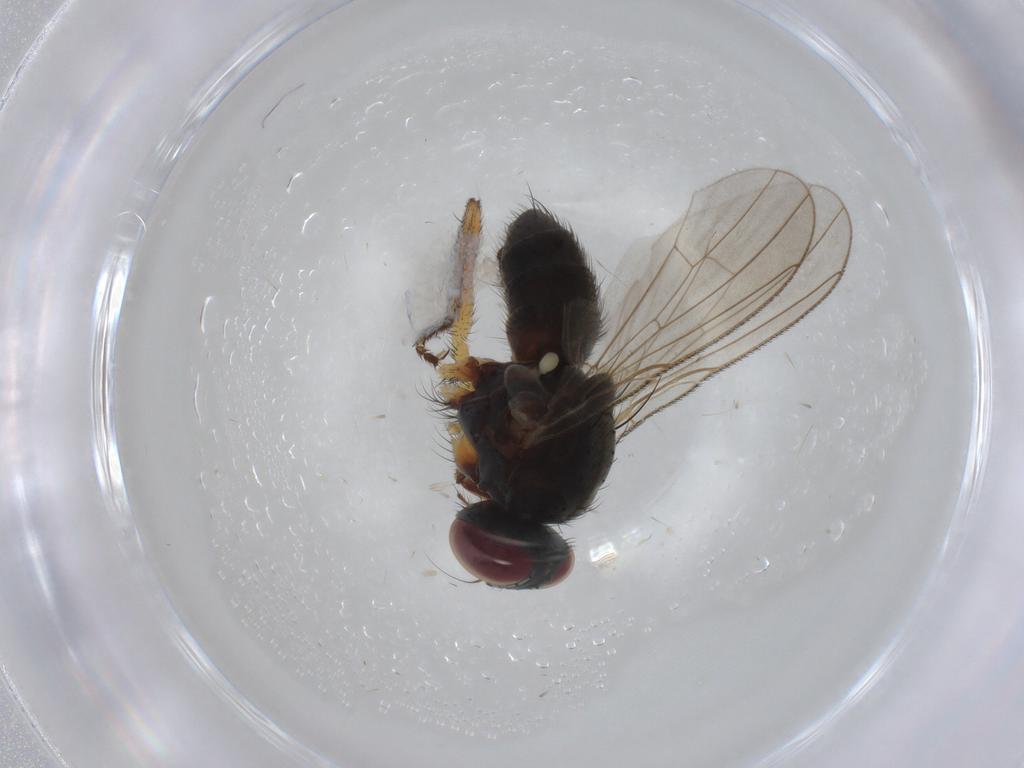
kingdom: Animalia
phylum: Arthropoda
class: Insecta
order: Diptera
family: Muscidae
